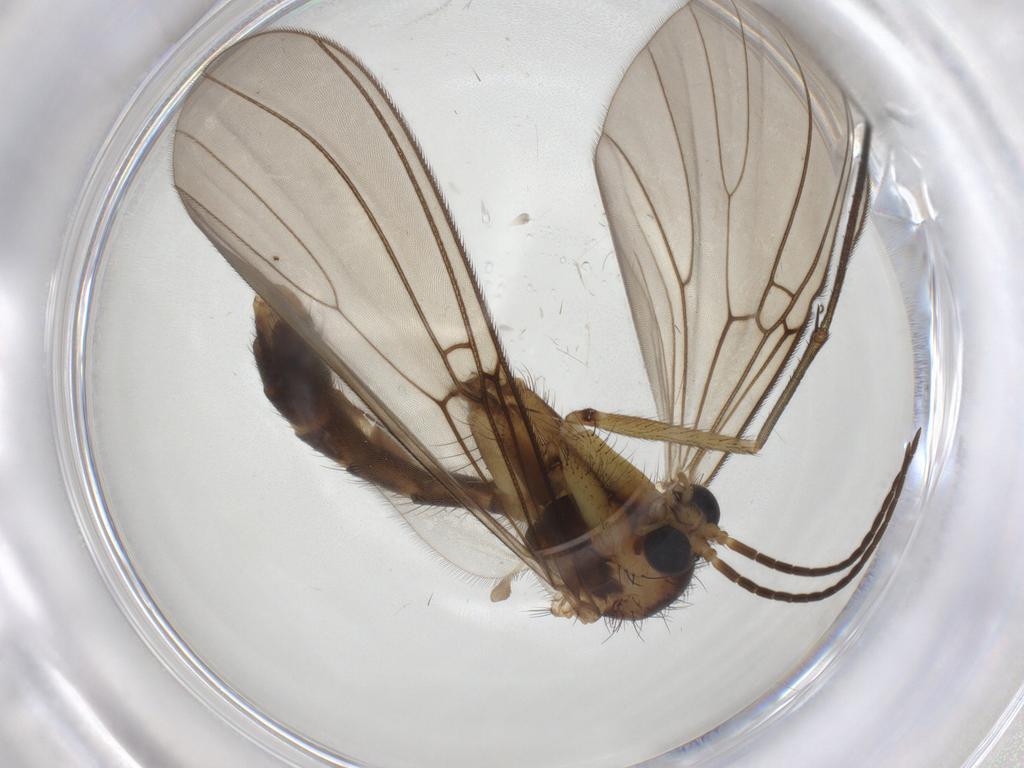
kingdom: Animalia
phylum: Arthropoda
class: Insecta
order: Diptera
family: Mycetophilidae
